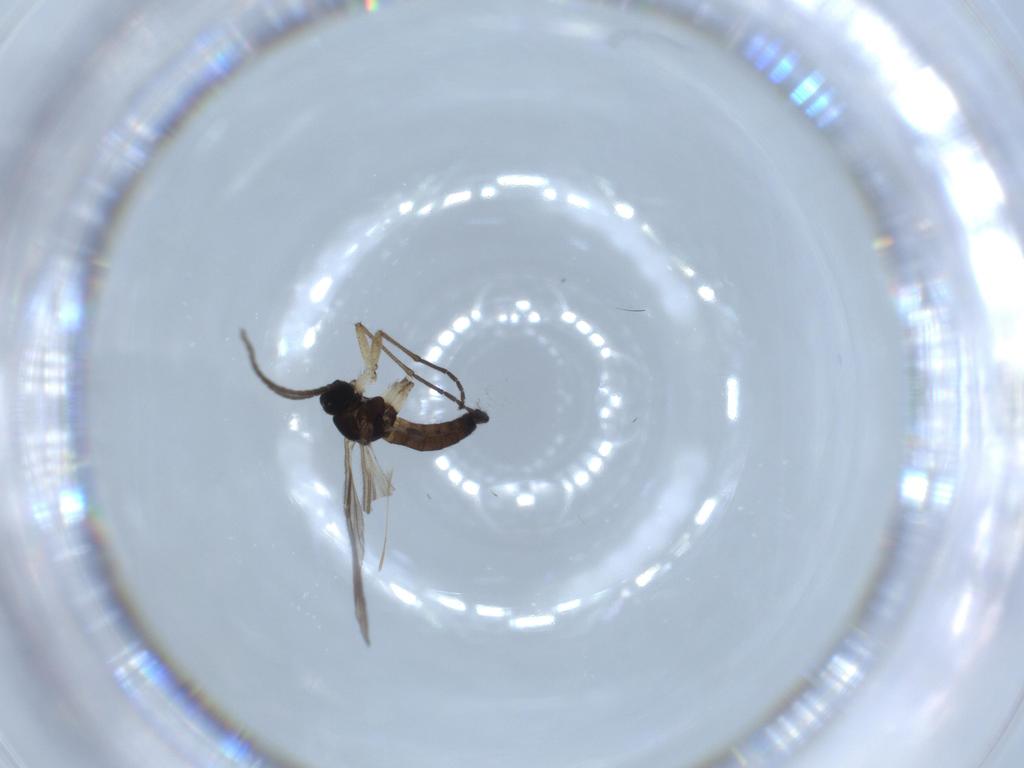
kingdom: Animalia
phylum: Arthropoda
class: Insecta
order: Diptera
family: Sciaridae
